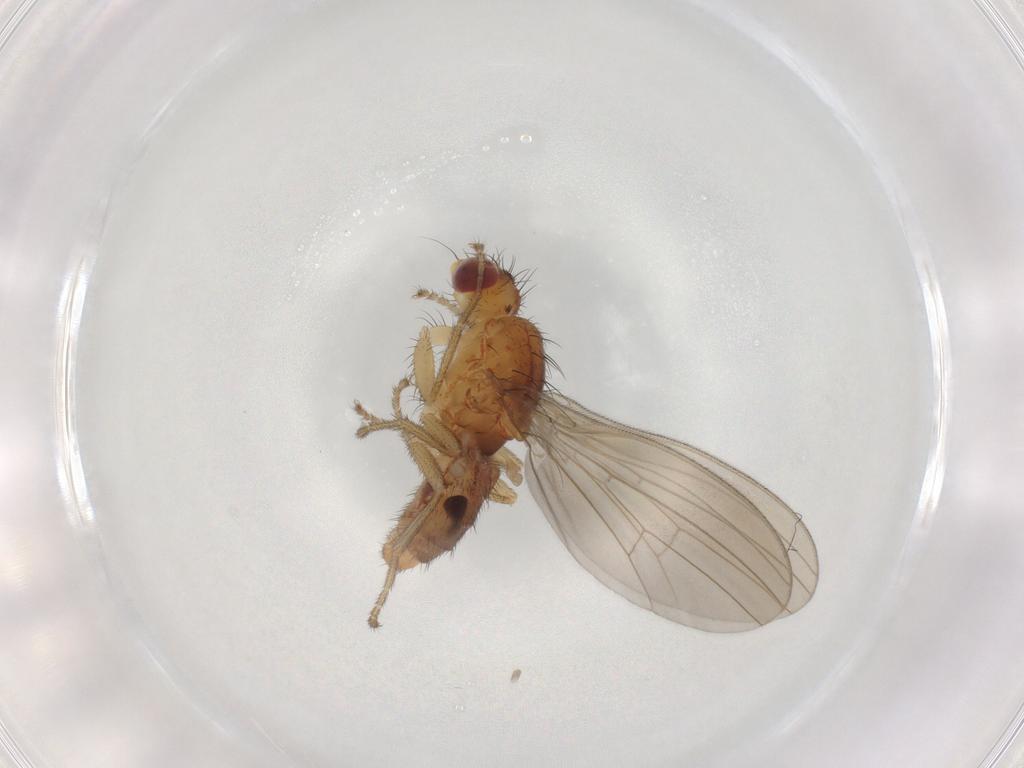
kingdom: Animalia
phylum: Arthropoda
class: Insecta
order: Diptera
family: Natalimyzidae
